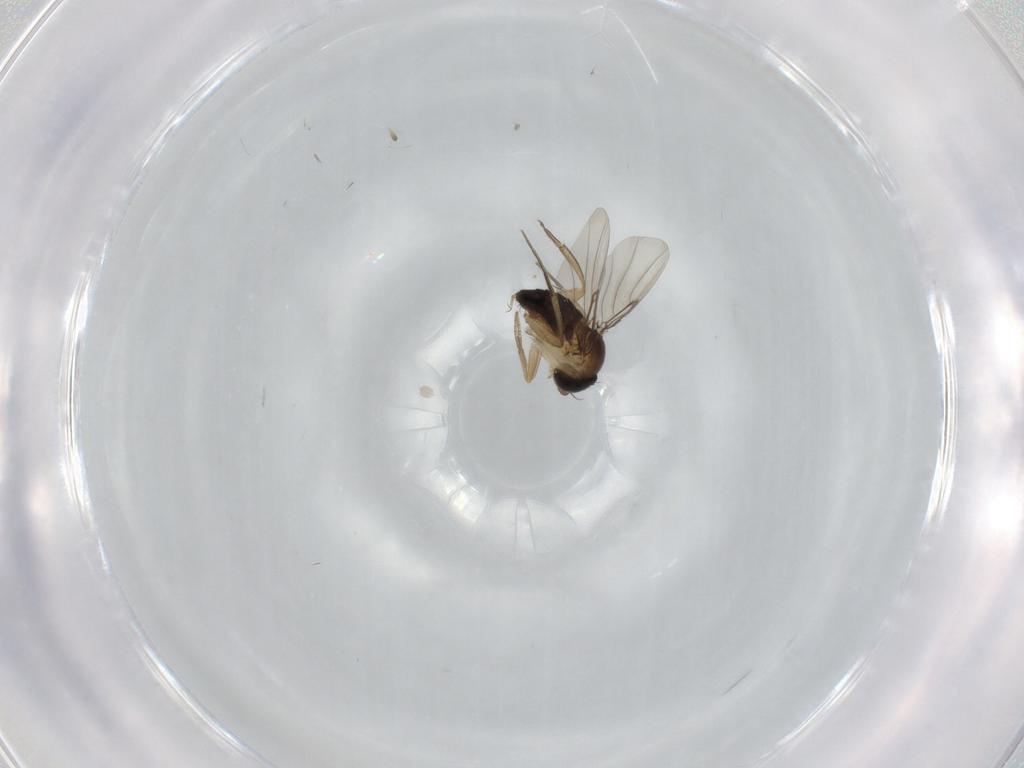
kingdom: Animalia
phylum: Arthropoda
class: Insecta
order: Diptera
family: Phoridae
